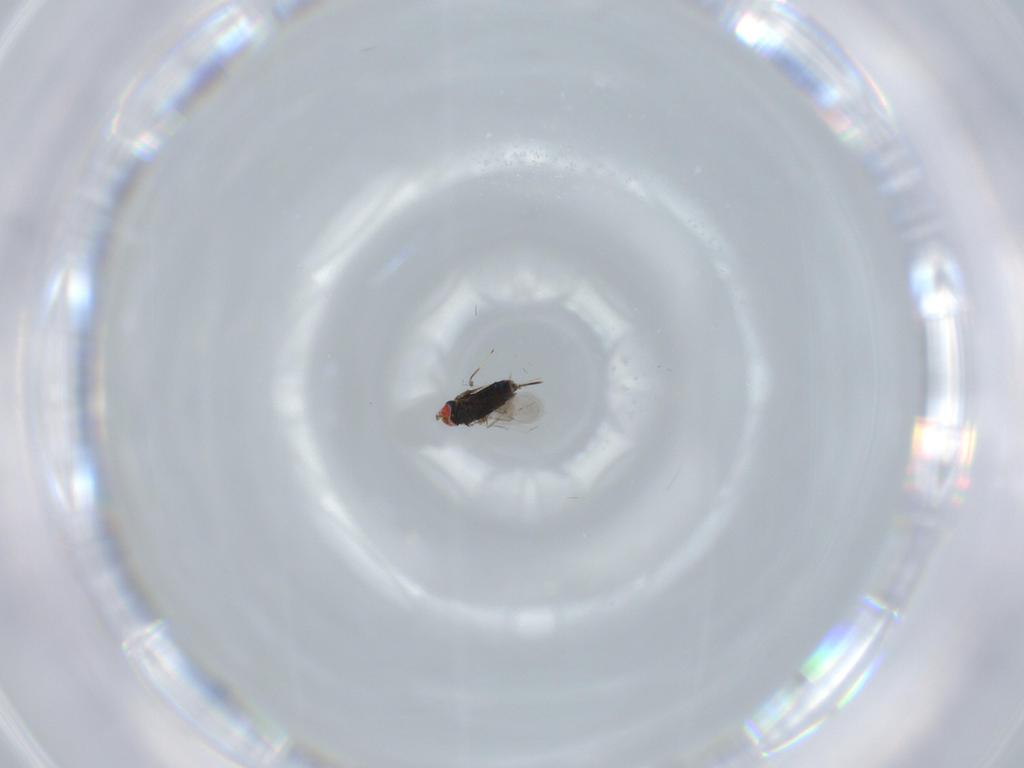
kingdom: Animalia
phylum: Arthropoda
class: Insecta
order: Hymenoptera
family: Azotidae
